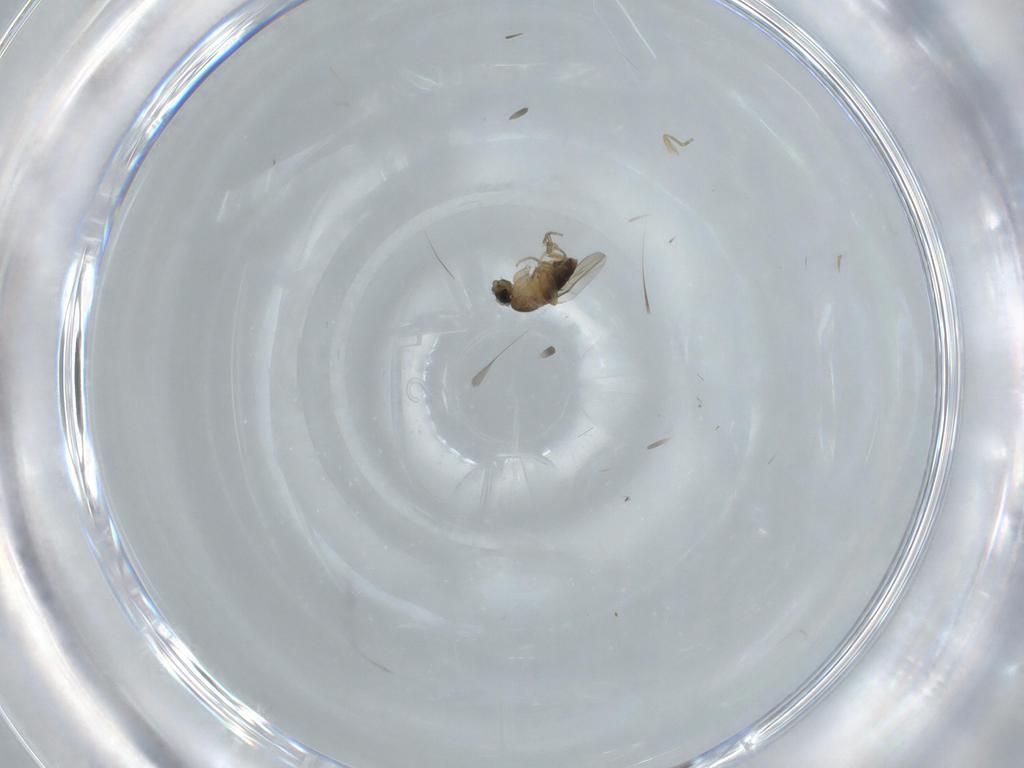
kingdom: Animalia
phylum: Arthropoda
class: Insecta
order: Diptera
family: Phoridae
